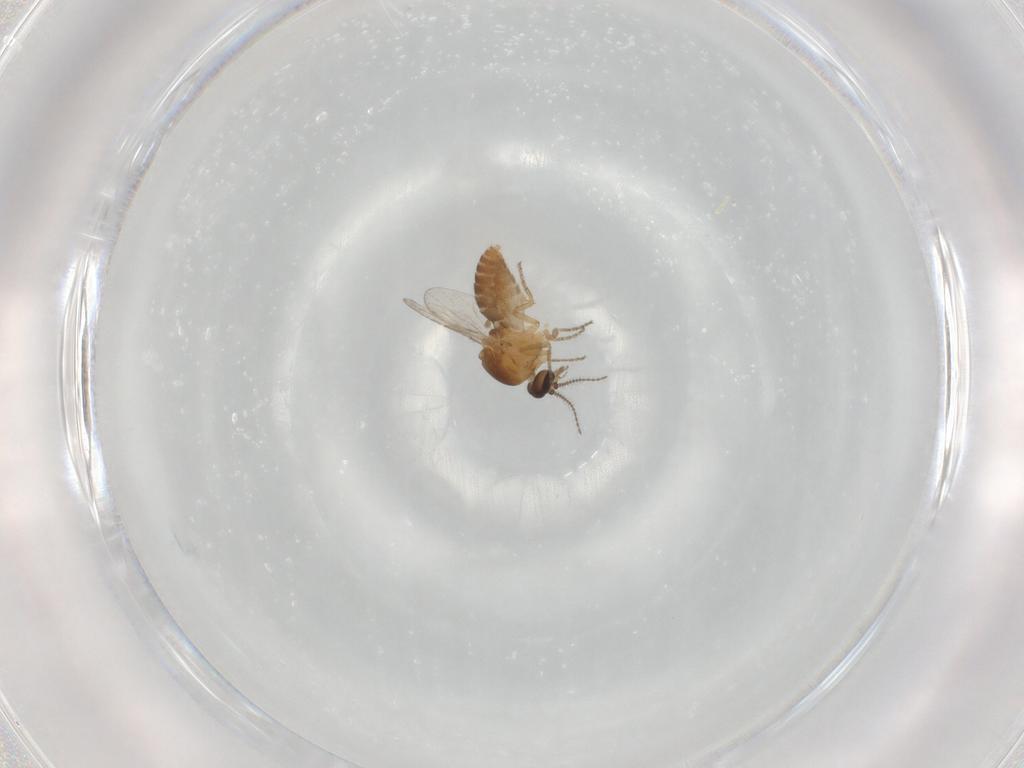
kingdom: Animalia
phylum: Arthropoda
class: Insecta
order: Diptera
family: Ceratopogonidae
